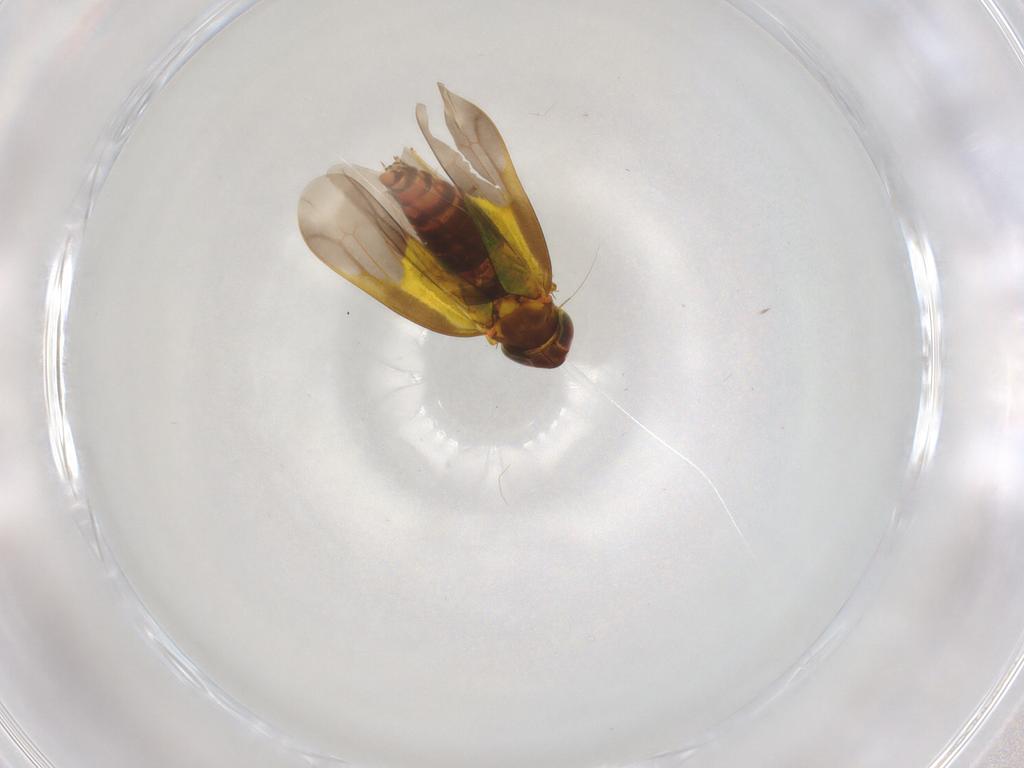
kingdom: Animalia
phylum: Arthropoda
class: Insecta
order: Hemiptera
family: Cicadellidae
